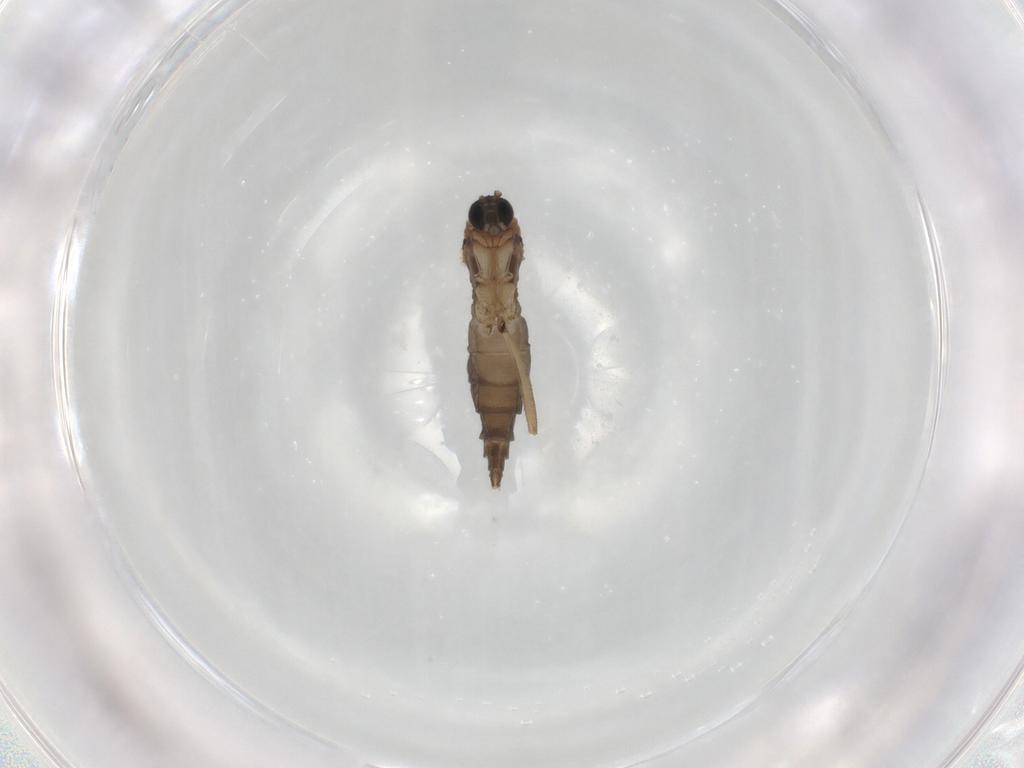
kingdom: Animalia
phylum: Arthropoda
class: Insecta
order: Diptera
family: Sciaridae
